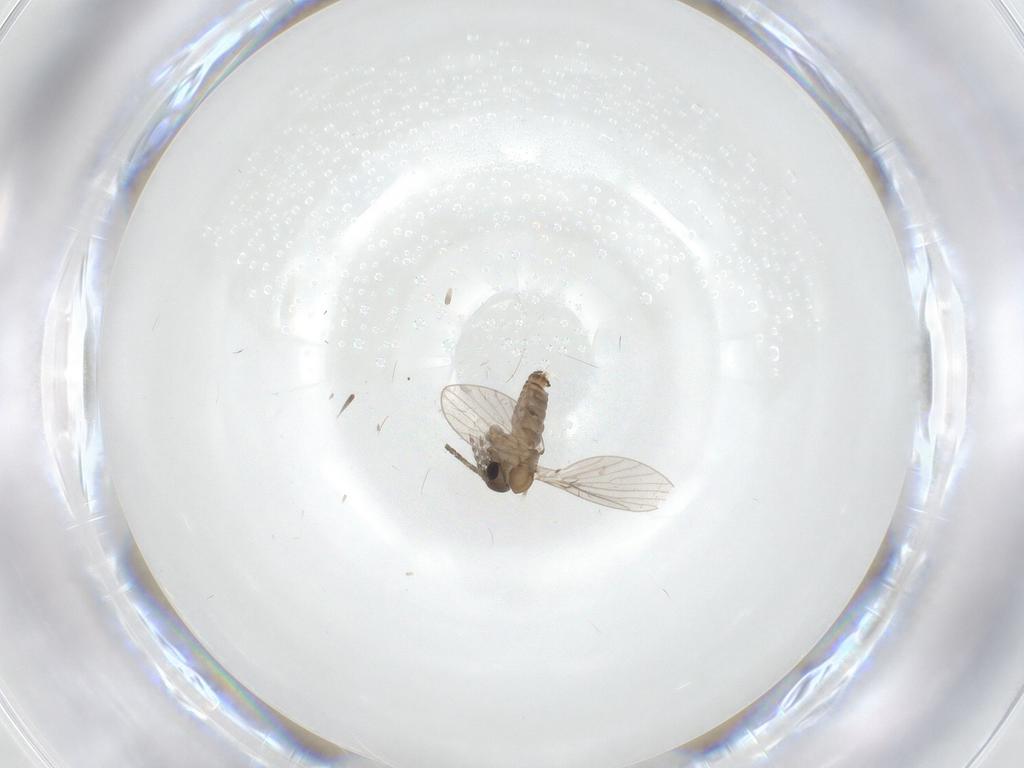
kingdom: Animalia
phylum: Arthropoda
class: Insecta
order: Diptera
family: Psychodidae
